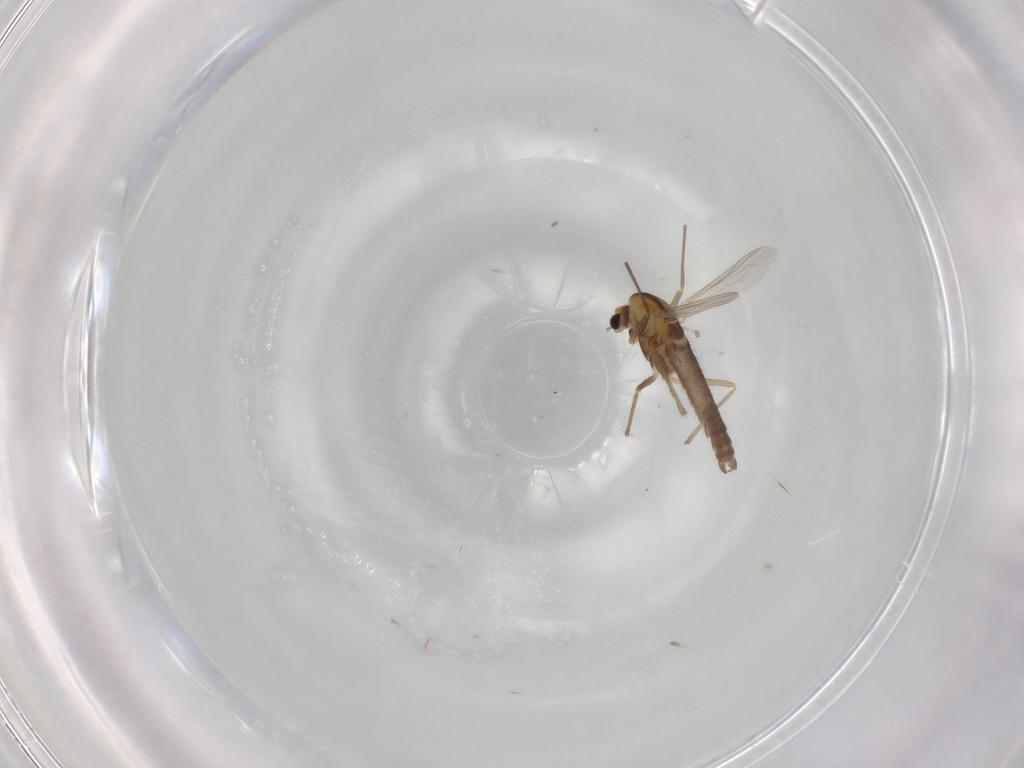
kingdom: Animalia
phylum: Arthropoda
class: Insecta
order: Diptera
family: Chironomidae
